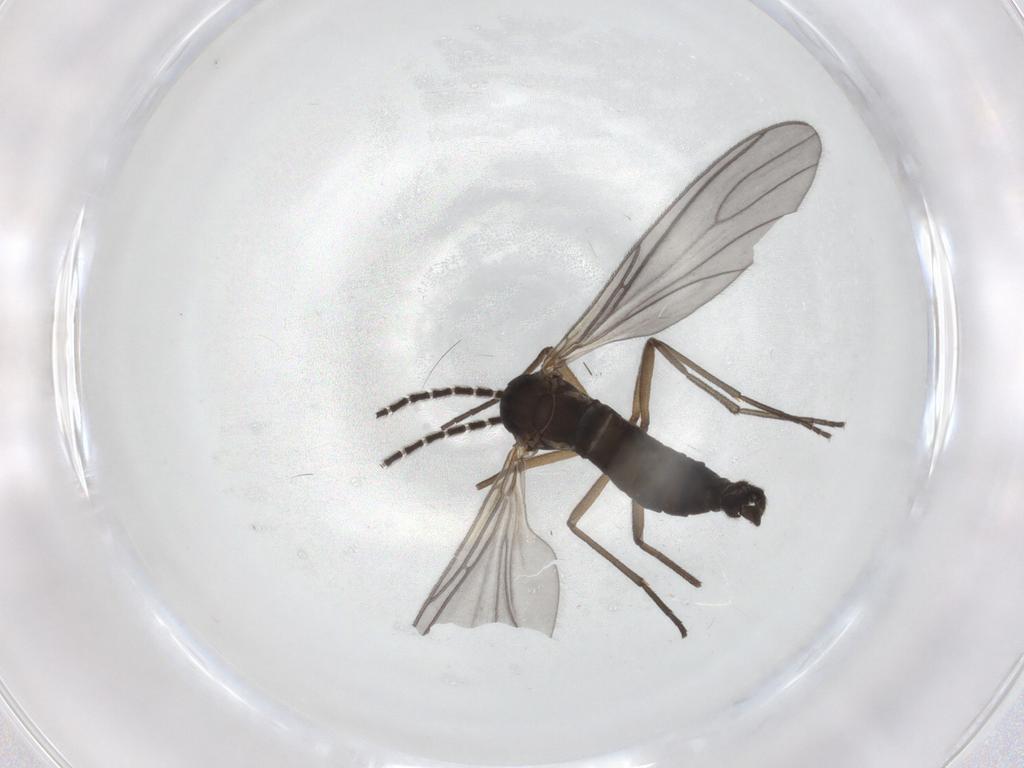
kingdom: Animalia
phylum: Arthropoda
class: Insecta
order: Diptera
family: Sciaridae
